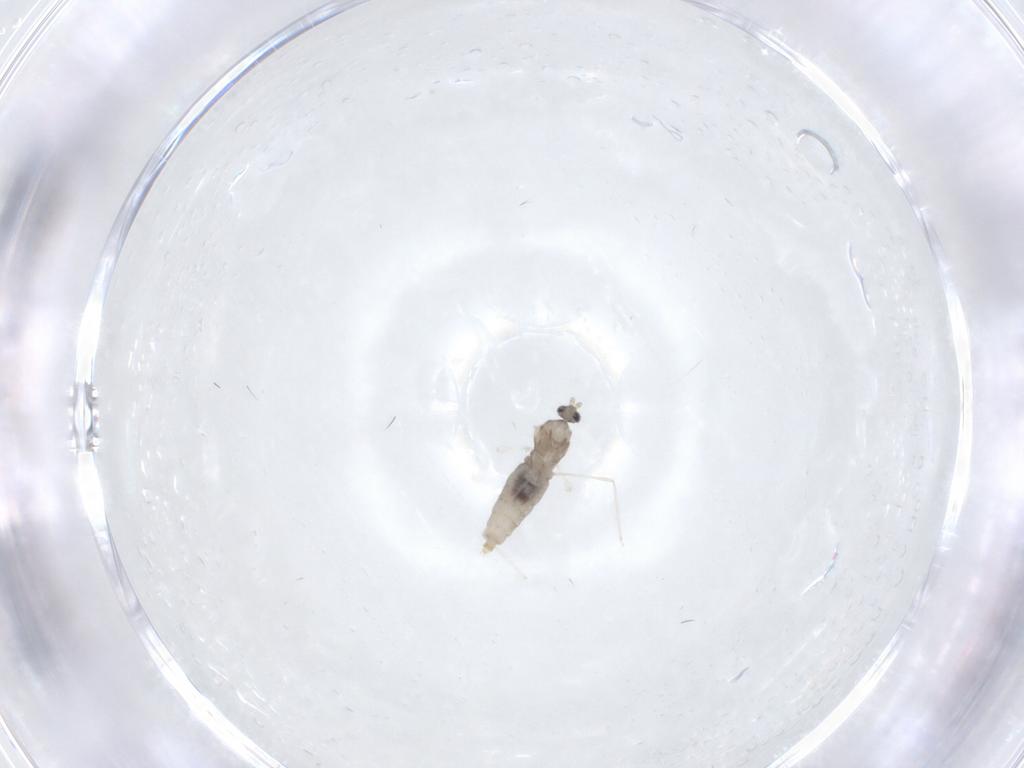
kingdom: Animalia
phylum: Arthropoda
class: Insecta
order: Diptera
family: Cecidomyiidae
